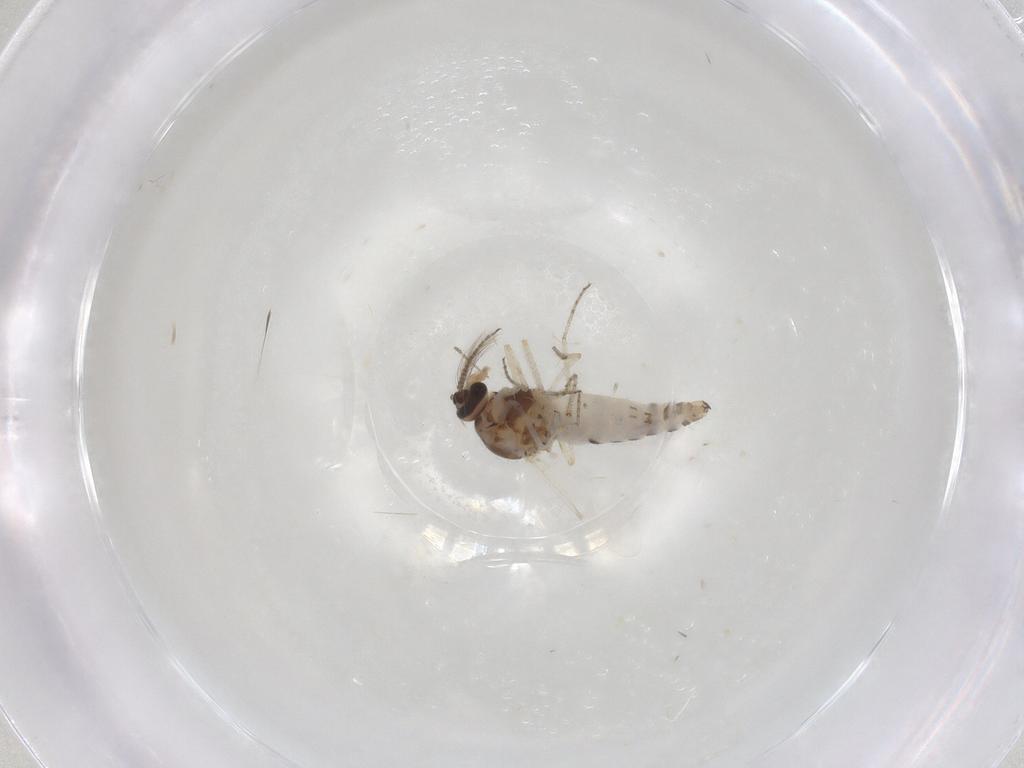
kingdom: Animalia
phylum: Arthropoda
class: Insecta
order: Diptera
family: Ceratopogonidae
